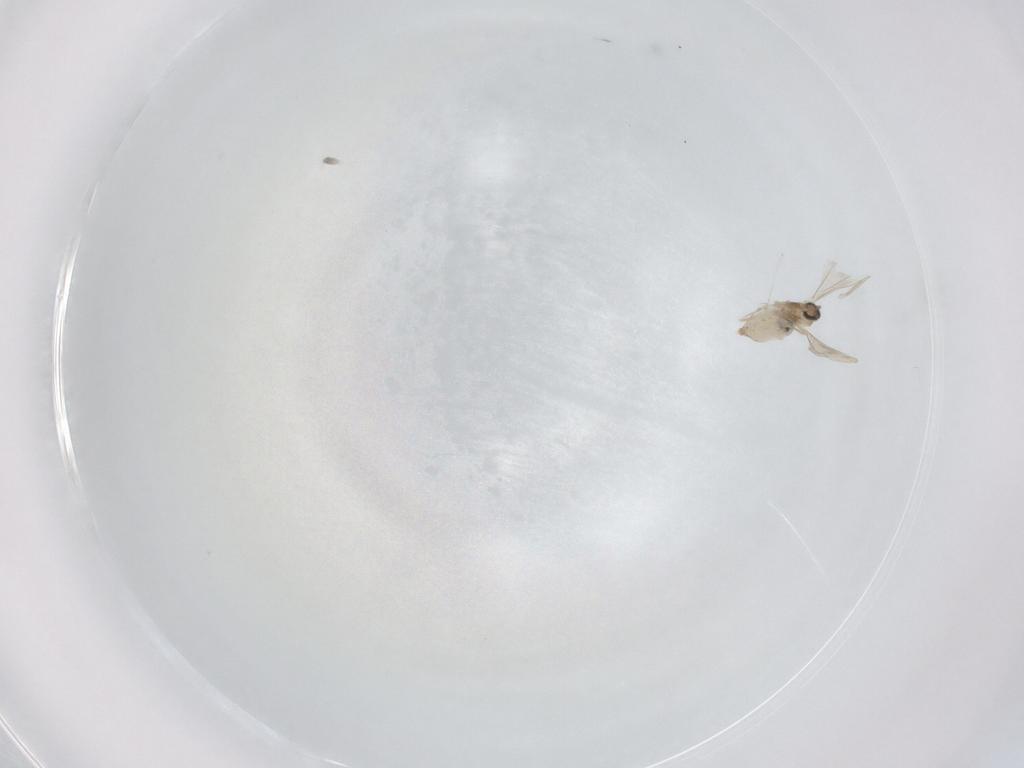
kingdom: Animalia
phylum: Arthropoda
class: Insecta
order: Diptera
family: Cecidomyiidae
